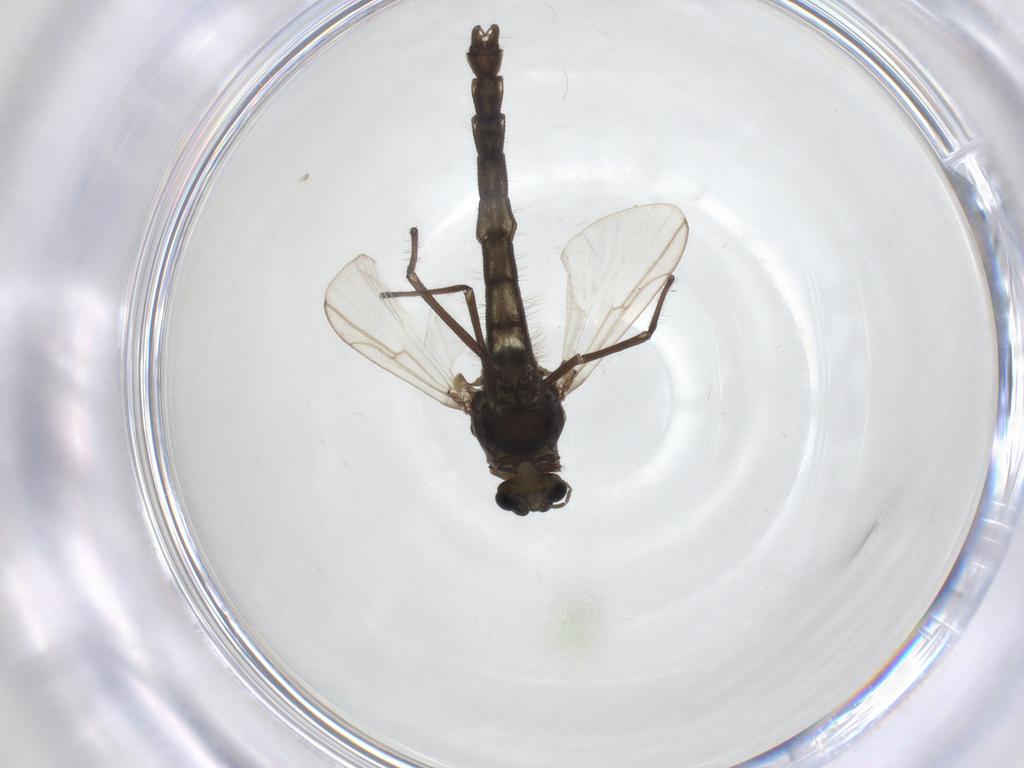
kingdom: Animalia
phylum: Arthropoda
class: Insecta
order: Diptera
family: Chironomidae
